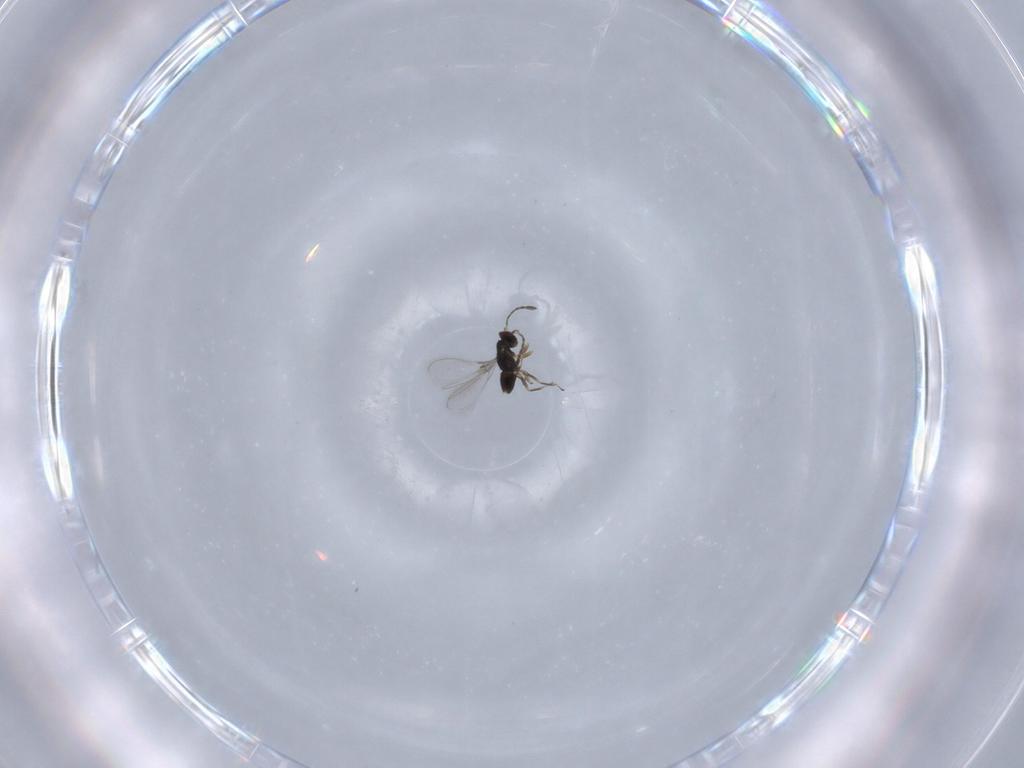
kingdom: Animalia
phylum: Arthropoda
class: Insecta
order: Hymenoptera
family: Mymaridae
